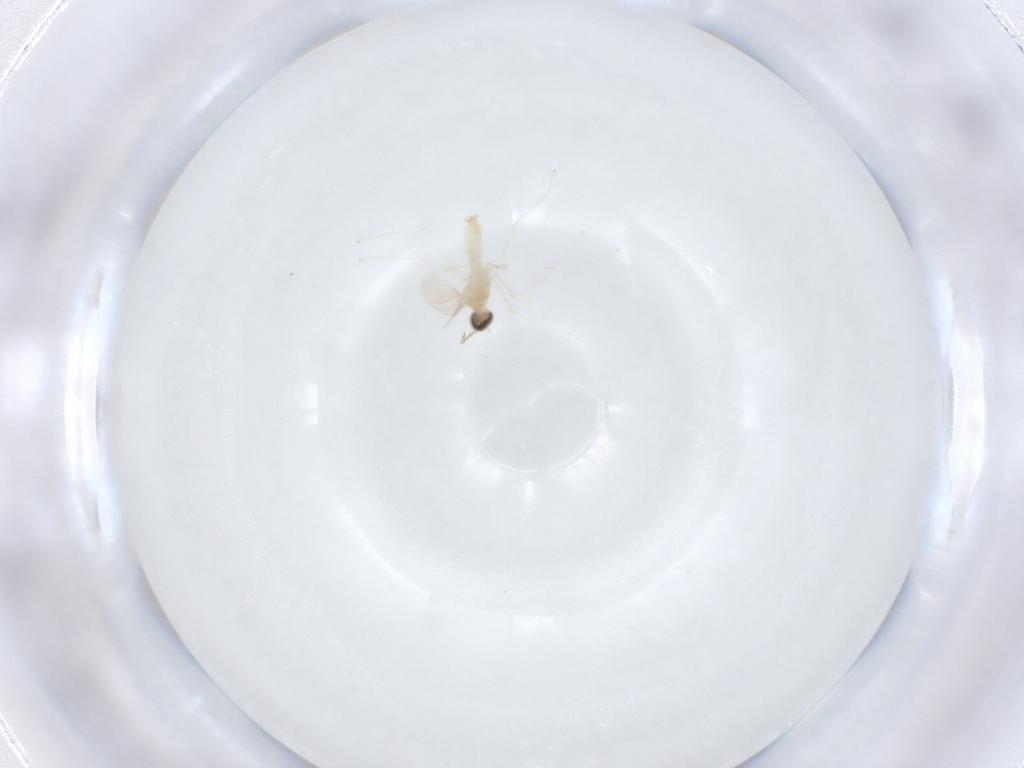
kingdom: Animalia
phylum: Arthropoda
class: Insecta
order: Diptera
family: Cecidomyiidae
